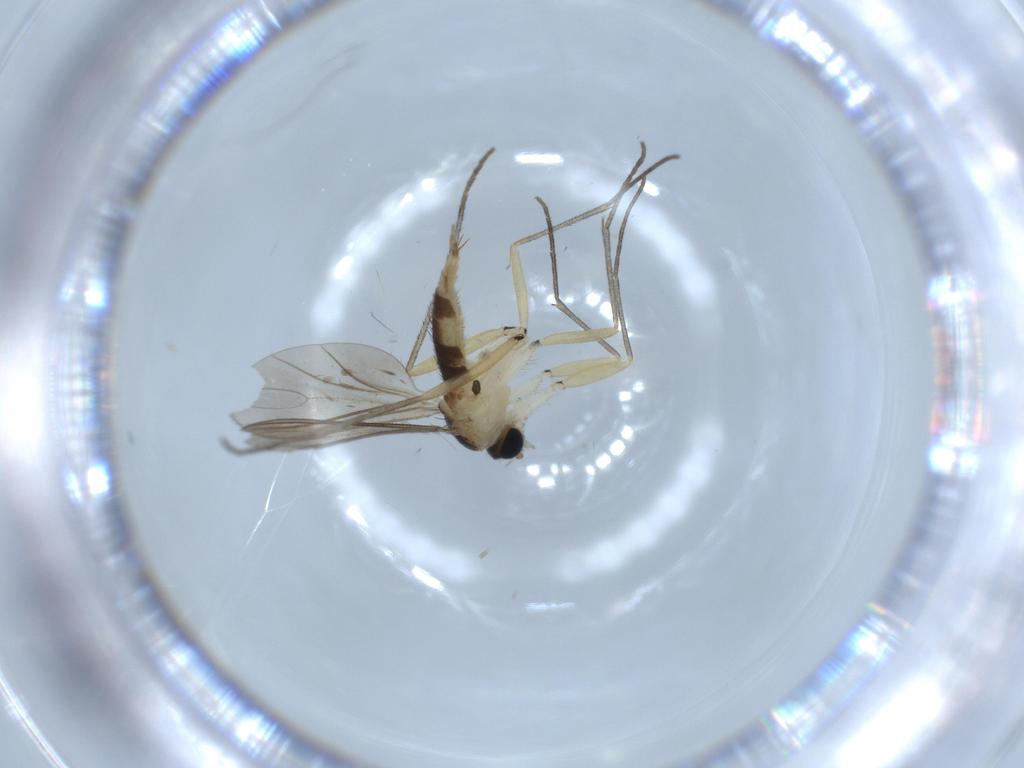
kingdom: Animalia
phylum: Arthropoda
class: Insecta
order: Diptera
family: Sciaridae
